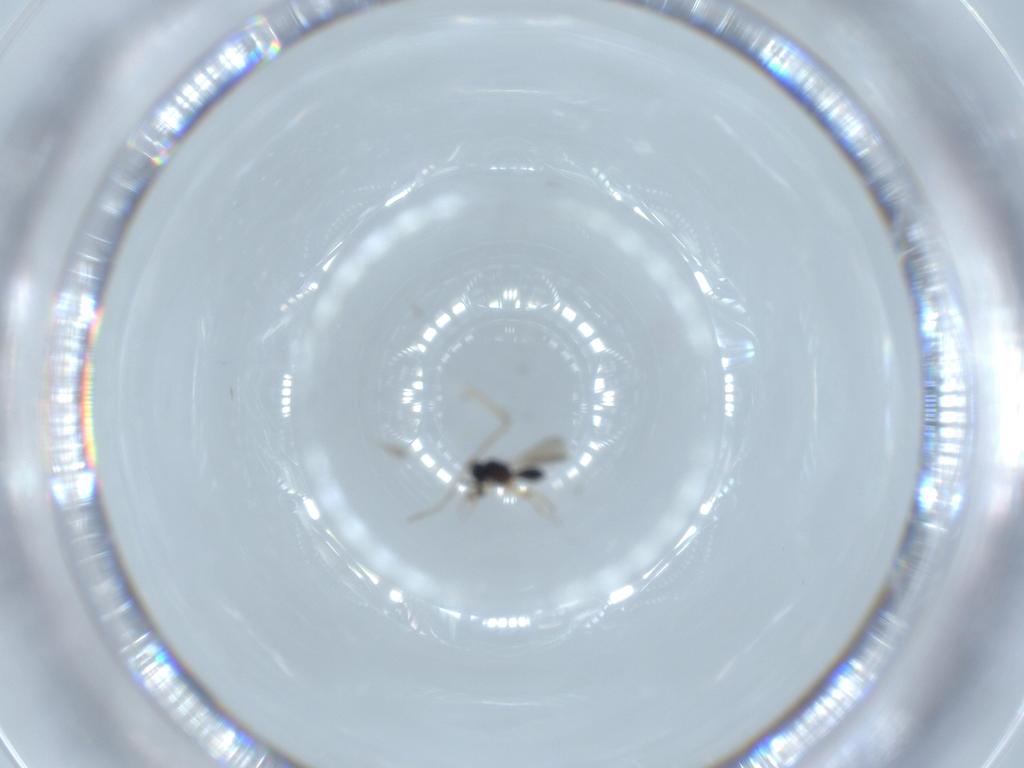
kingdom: Animalia
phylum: Arthropoda
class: Insecta
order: Hymenoptera
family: Scelionidae
